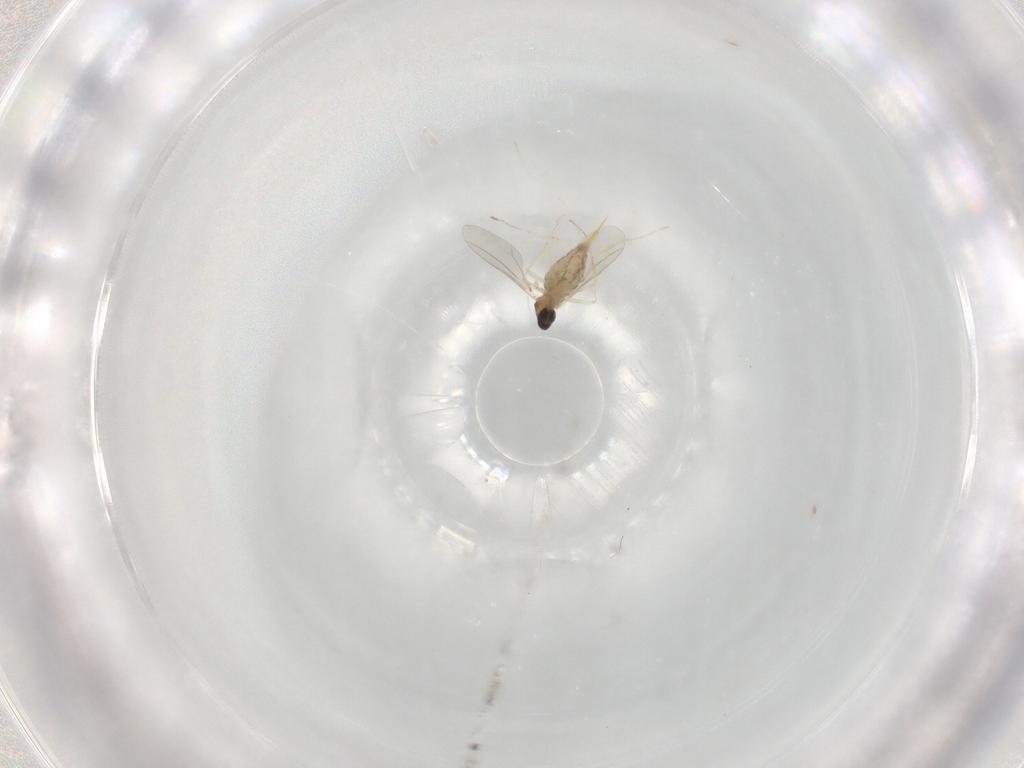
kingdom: Animalia
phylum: Arthropoda
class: Insecta
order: Diptera
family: Cecidomyiidae
